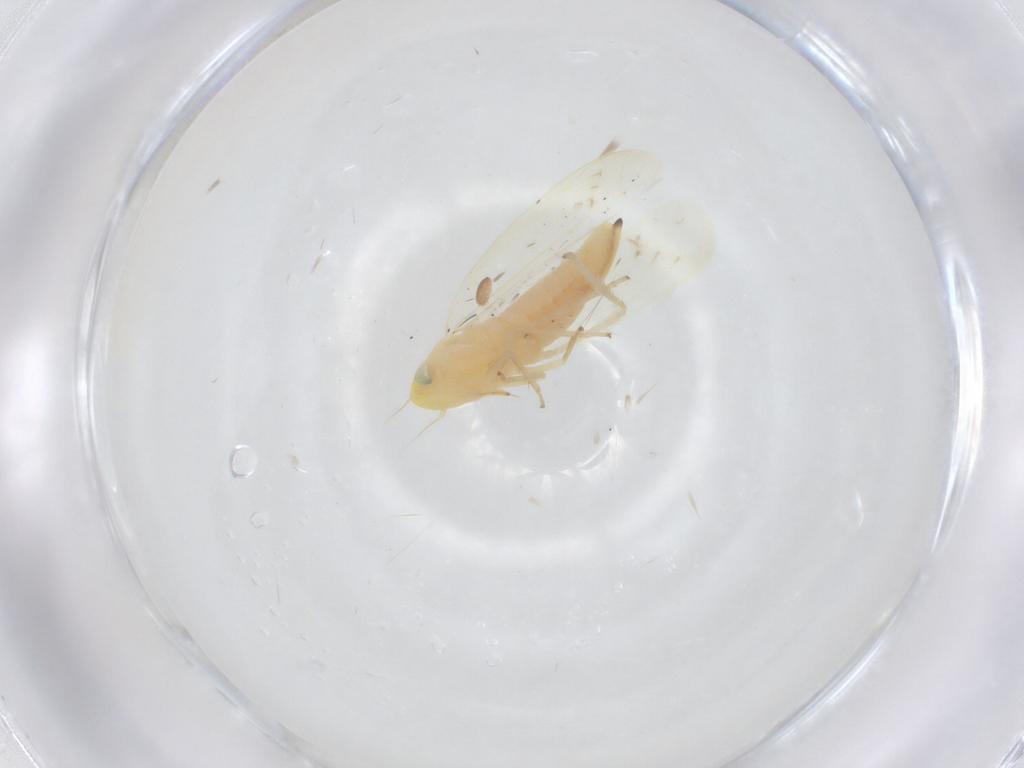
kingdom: Animalia
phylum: Arthropoda
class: Insecta
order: Hemiptera
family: Cicadellidae
